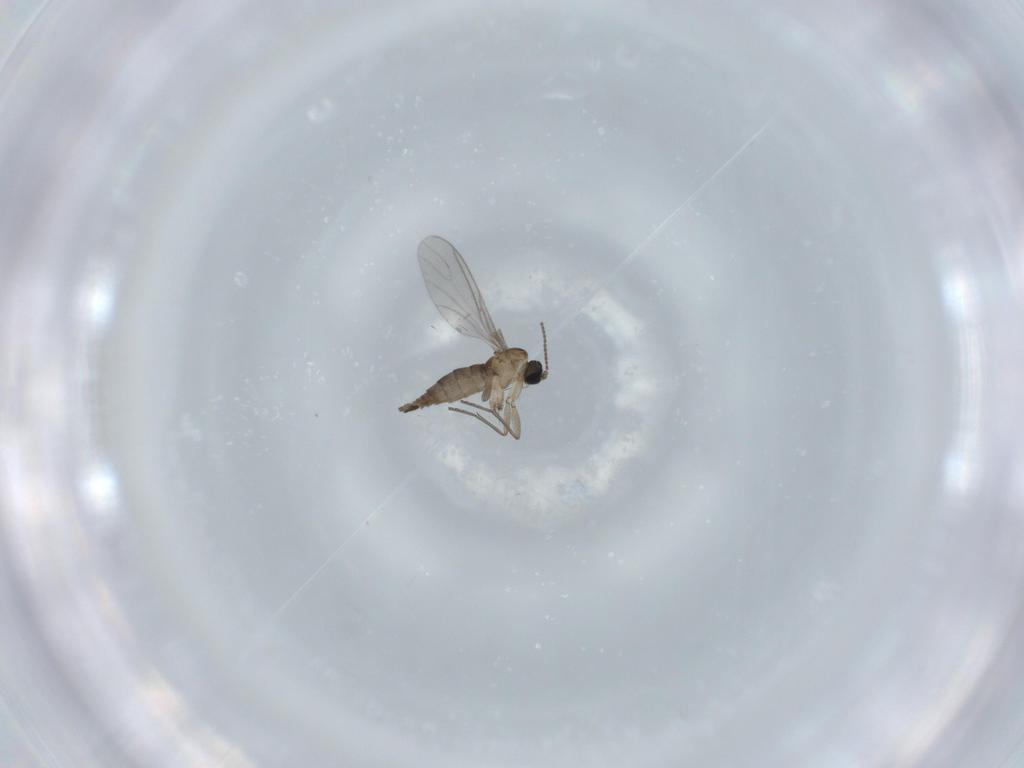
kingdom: Animalia
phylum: Arthropoda
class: Insecta
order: Diptera
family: Sciaridae
